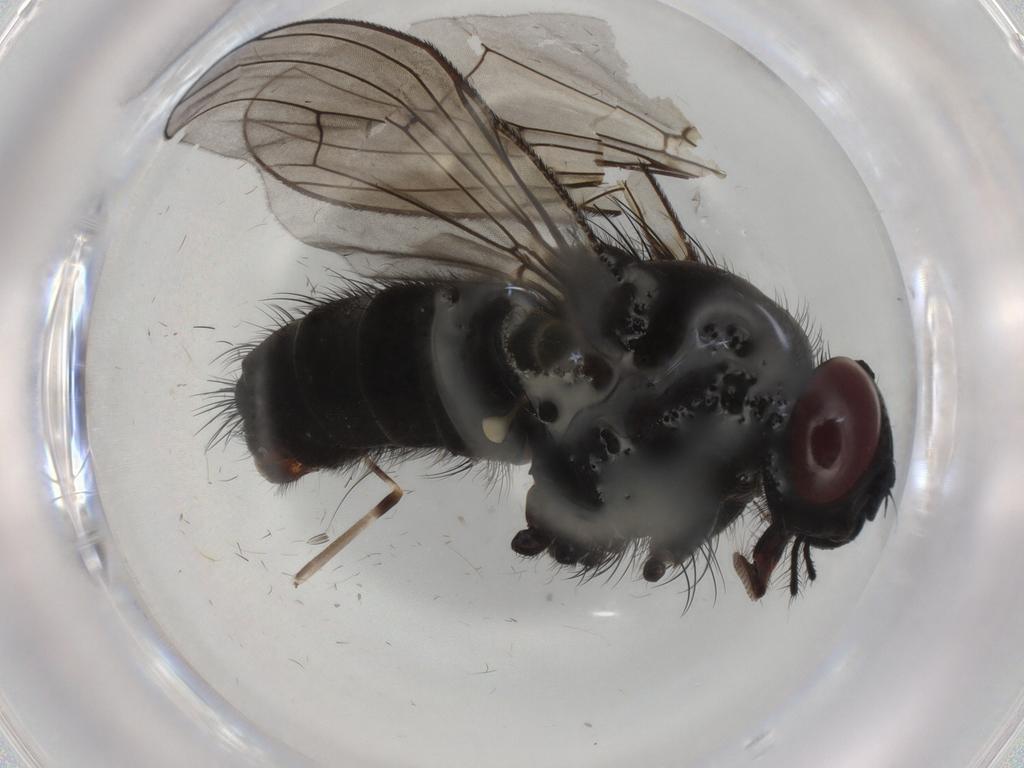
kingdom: Animalia
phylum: Arthropoda
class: Insecta
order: Diptera
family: Muscidae
